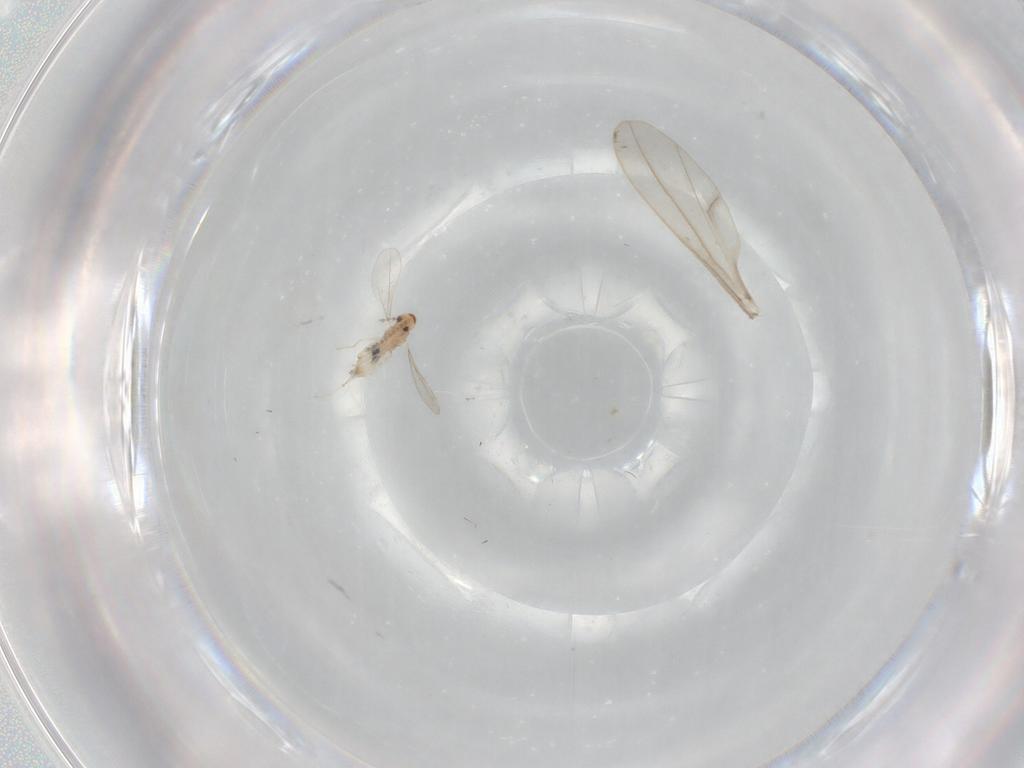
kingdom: Animalia
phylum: Arthropoda
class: Insecta
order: Diptera
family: Cecidomyiidae
